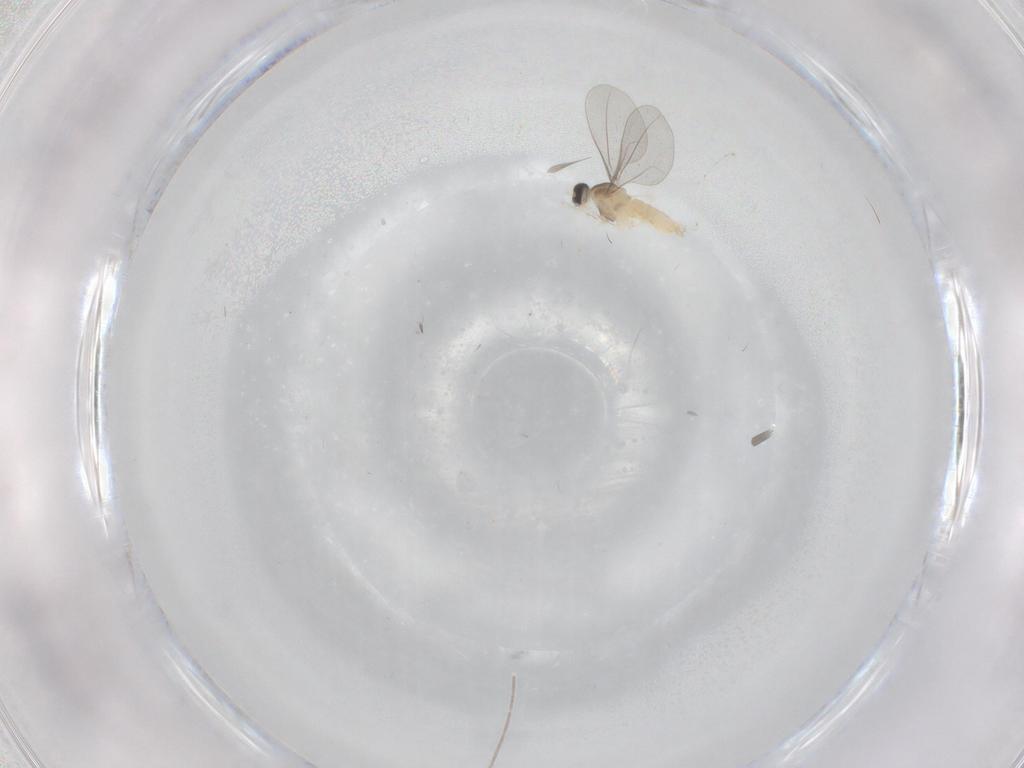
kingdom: Animalia
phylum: Arthropoda
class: Insecta
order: Diptera
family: Cecidomyiidae
